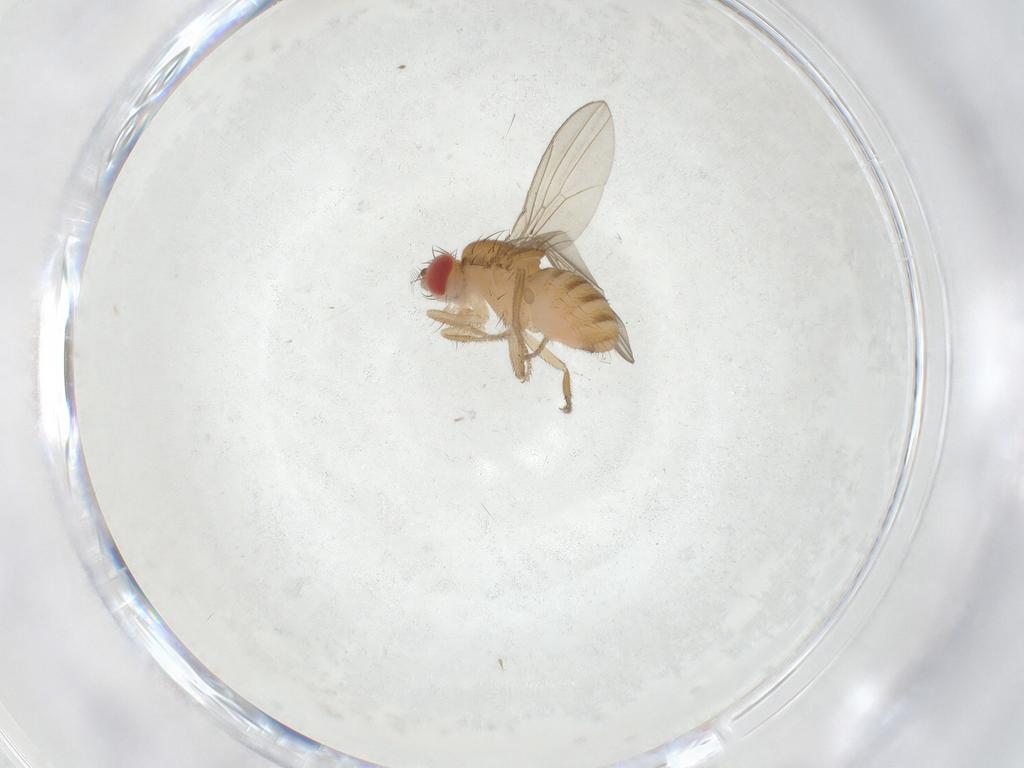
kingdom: Animalia
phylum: Arthropoda
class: Insecta
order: Diptera
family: Drosophilidae
